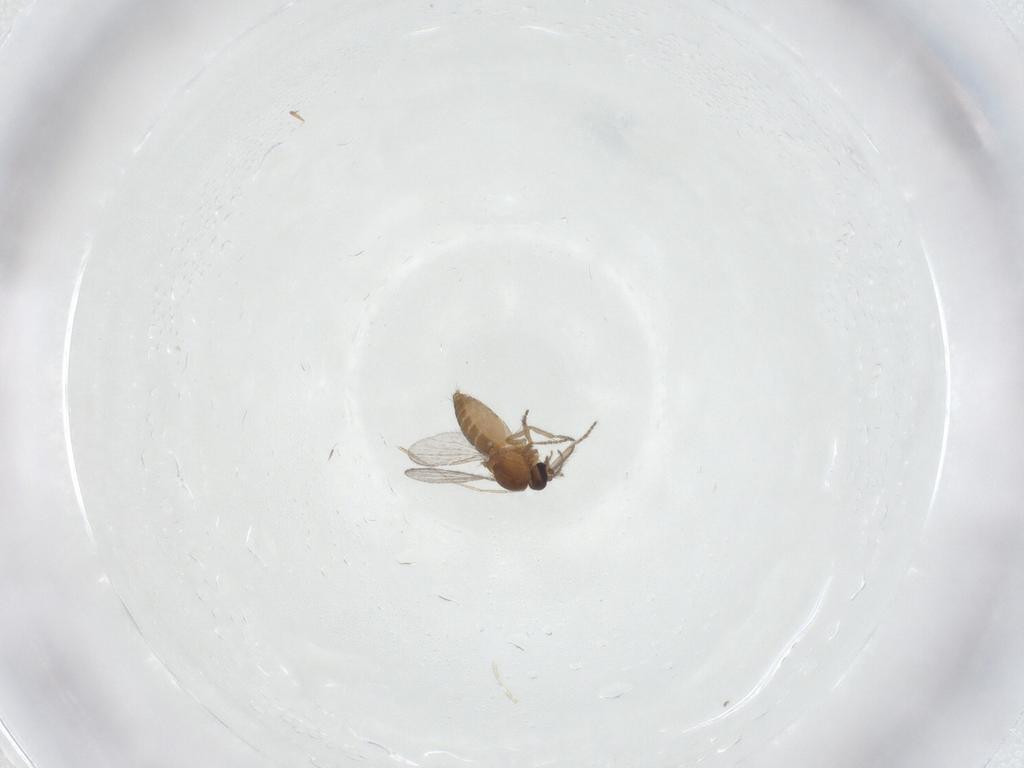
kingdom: Animalia
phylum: Arthropoda
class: Insecta
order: Diptera
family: Ceratopogonidae
